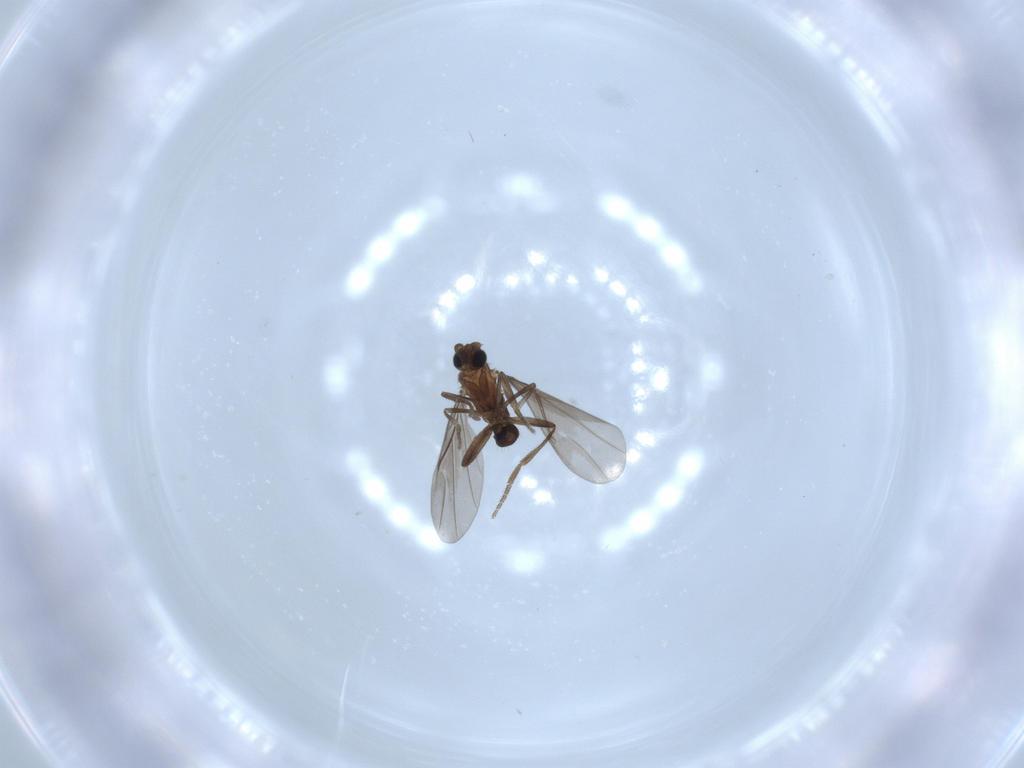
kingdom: Animalia
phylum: Arthropoda
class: Insecta
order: Diptera
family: Phoridae
